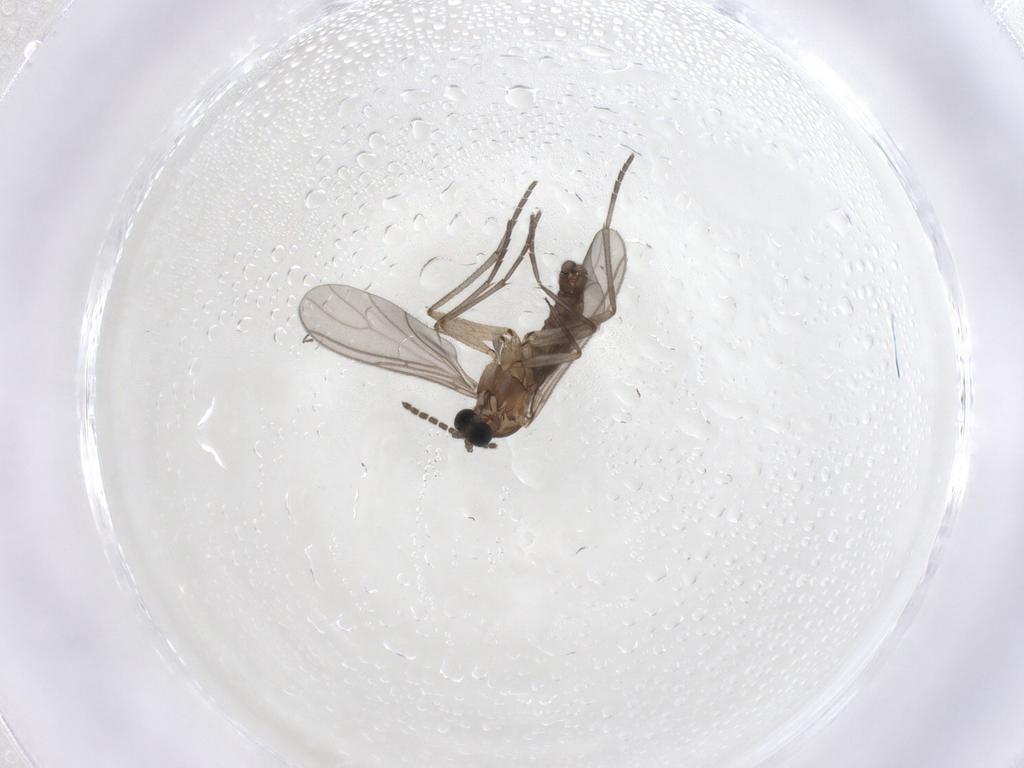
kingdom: Animalia
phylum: Arthropoda
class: Insecta
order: Diptera
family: Sciaridae
